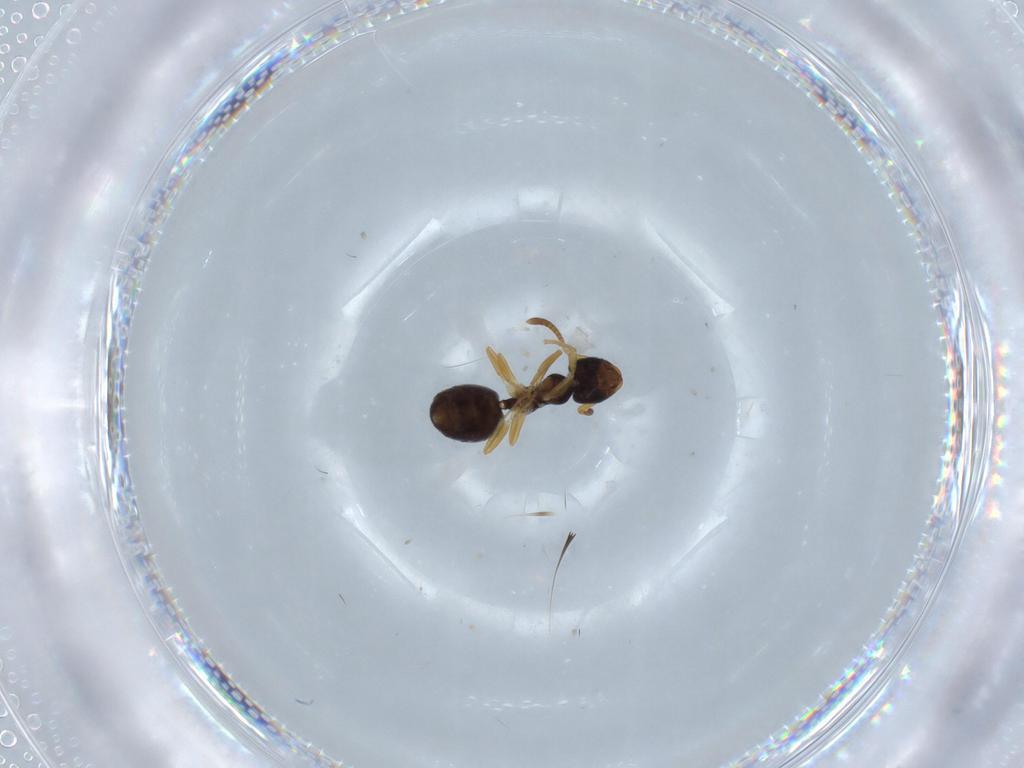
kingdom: Animalia
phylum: Arthropoda
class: Insecta
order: Hymenoptera
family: Formicidae
